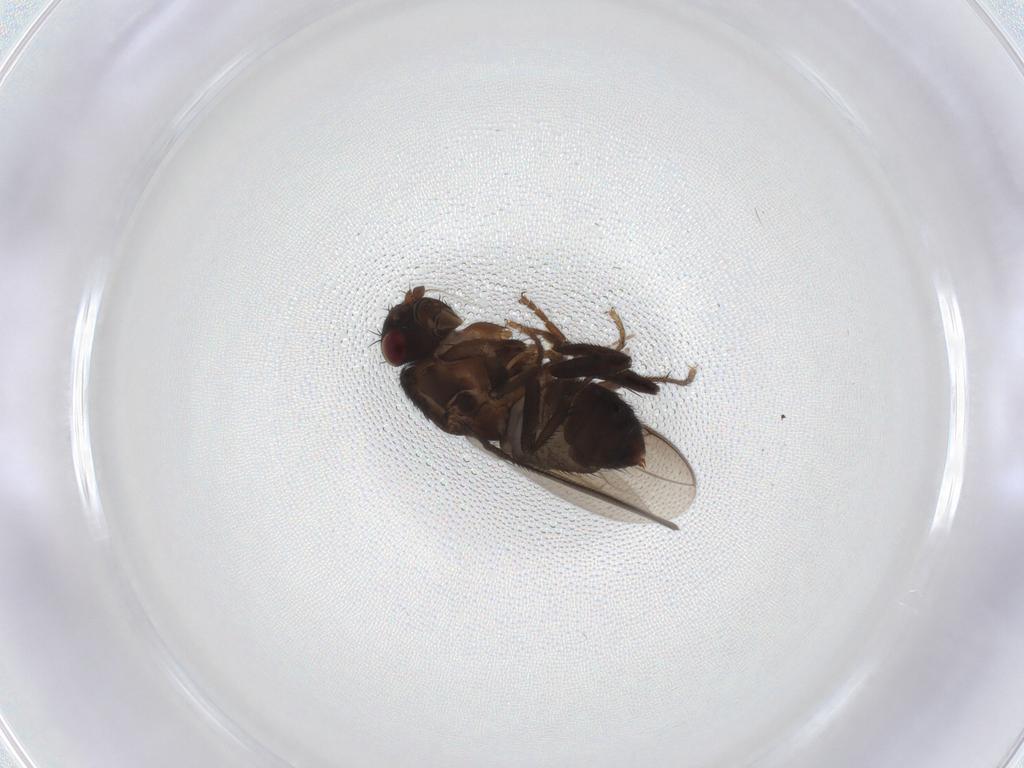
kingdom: Animalia
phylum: Arthropoda
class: Insecta
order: Diptera
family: Sphaeroceridae
